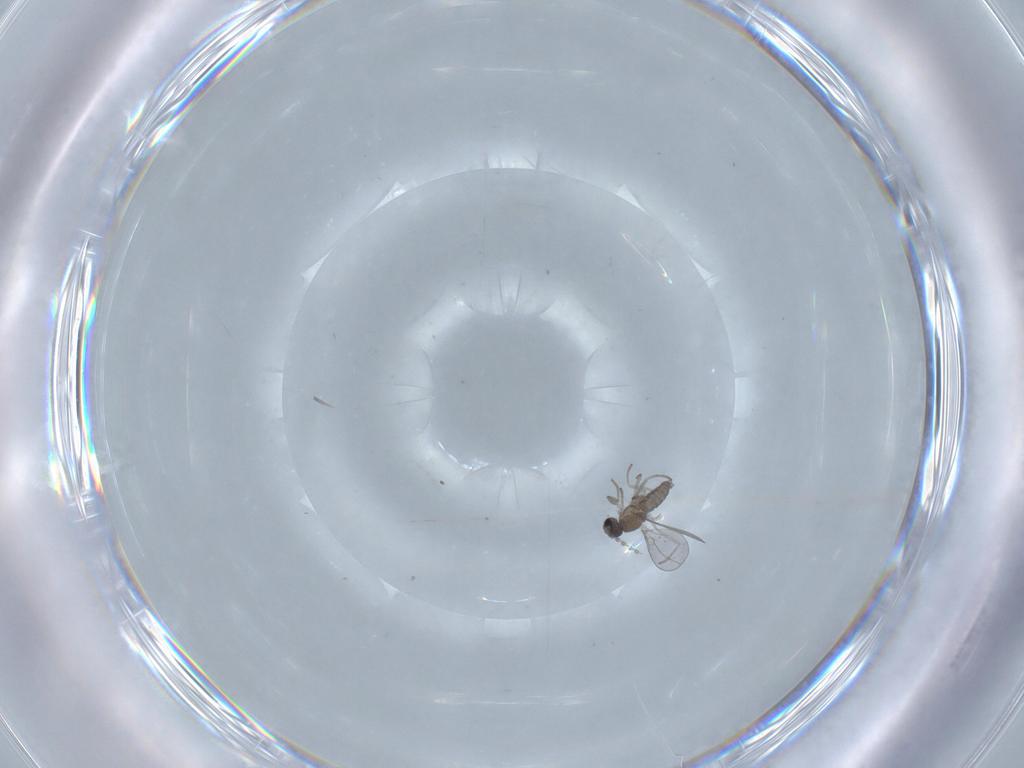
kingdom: Animalia
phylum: Arthropoda
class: Insecta
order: Diptera
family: Cecidomyiidae
